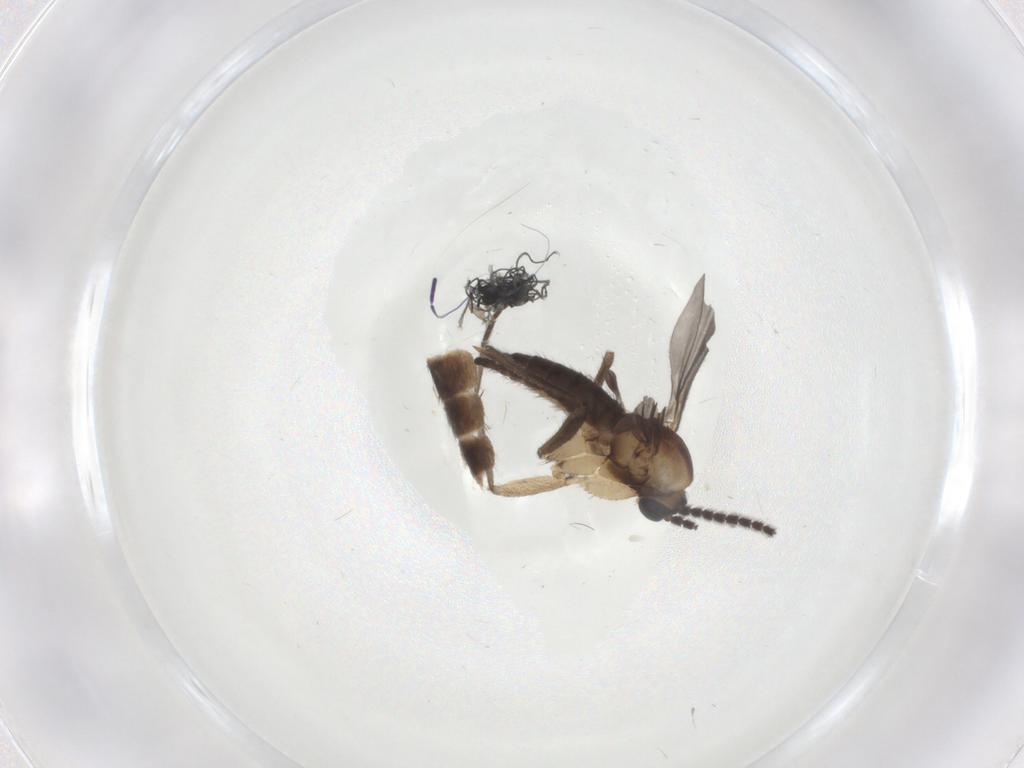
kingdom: Animalia
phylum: Arthropoda
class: Insecta
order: Diptera
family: Sciaridae
